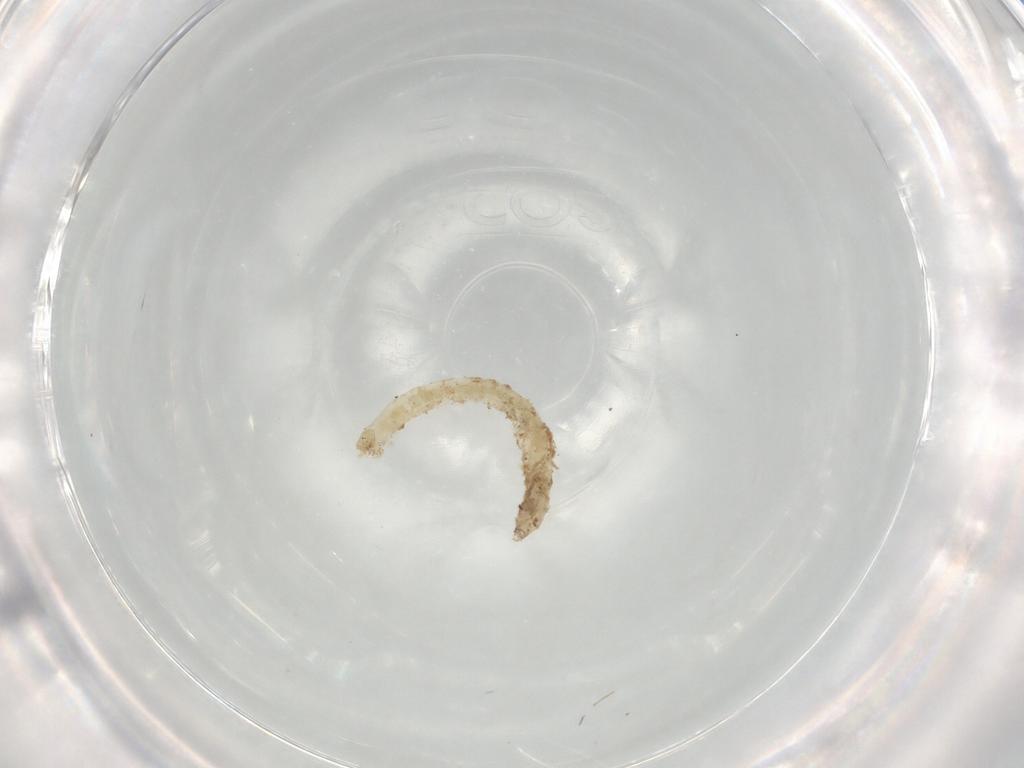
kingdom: Animalia
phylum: Arthropoda
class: Insecta
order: Diptera
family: Chironomidae
